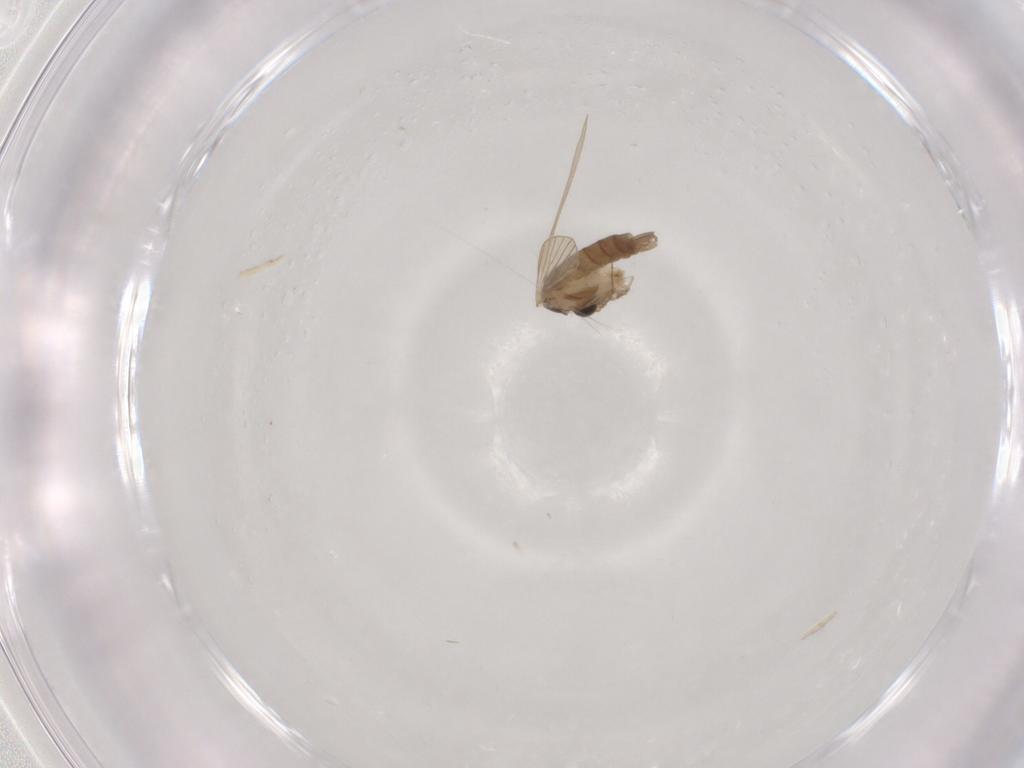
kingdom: Animalia
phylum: Arthropoda
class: Insecta
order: Diptera
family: Psychodidae
